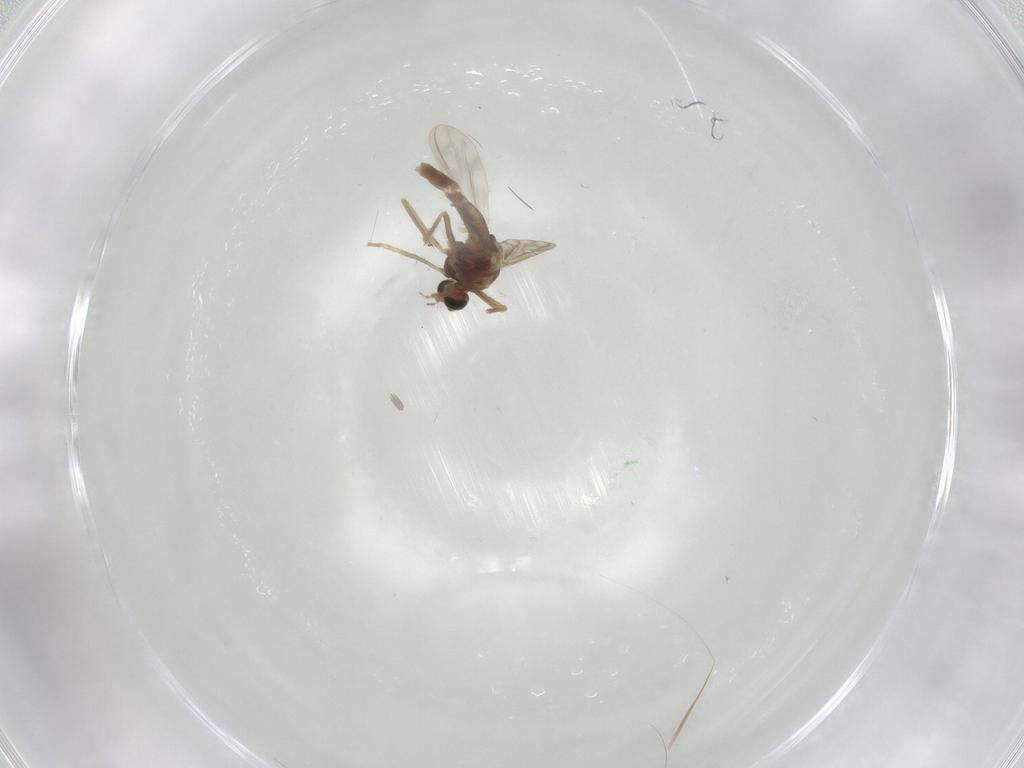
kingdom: Animalia
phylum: Arthropoda
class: Insecta
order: Diptera
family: Chironomidae
